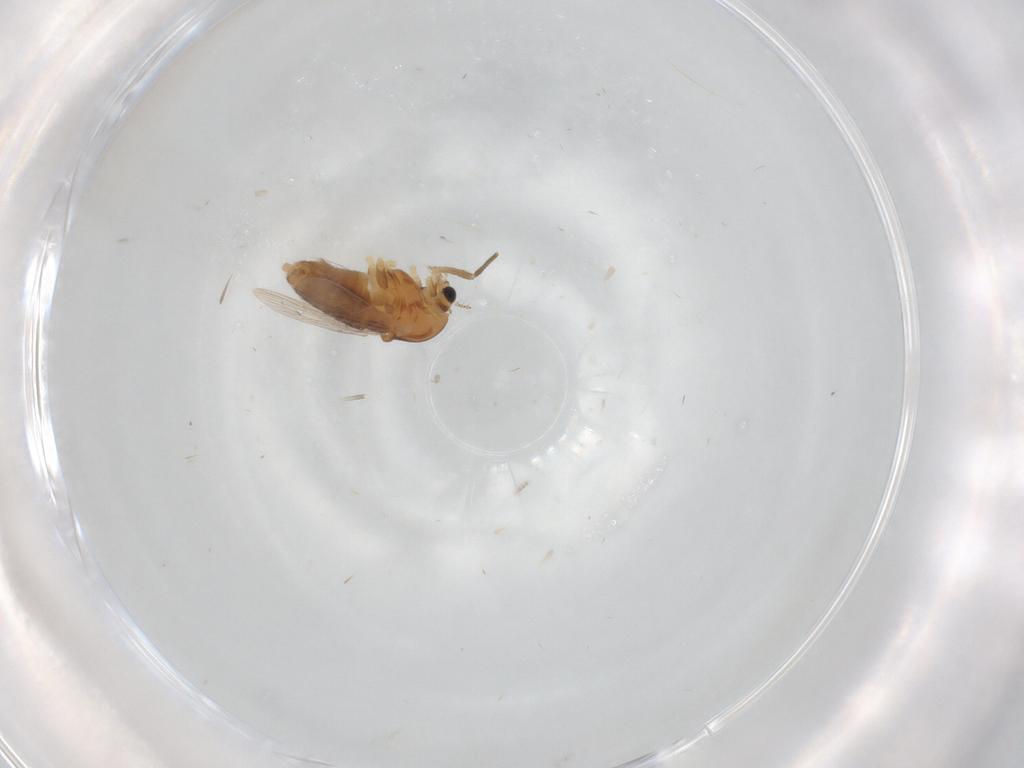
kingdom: Animalia
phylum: Arthropoda
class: Insecta
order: Diptera
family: Chironomidae
